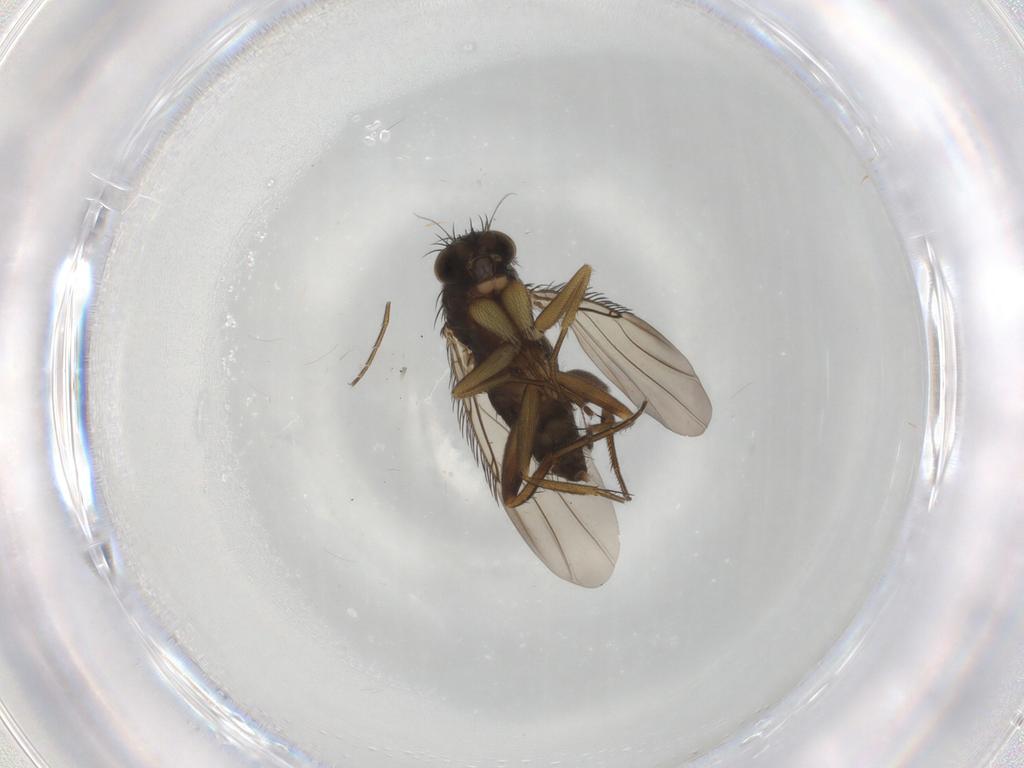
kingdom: Animalia
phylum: Arthropoda
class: Insecta
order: Diptera
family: Phoridae
